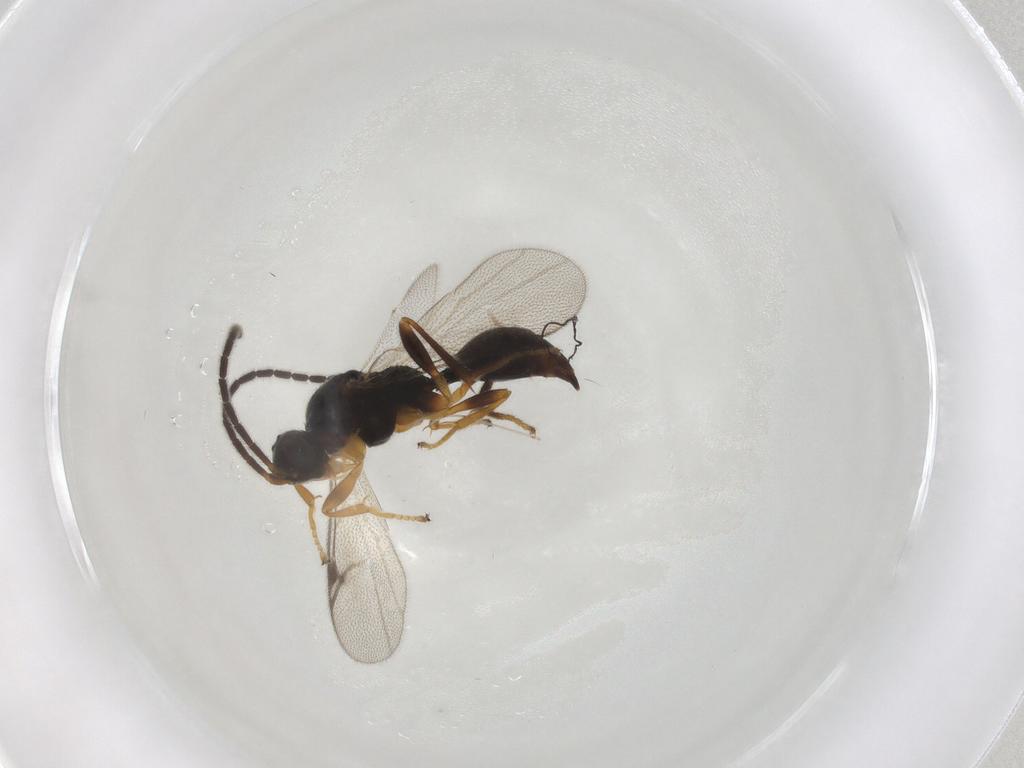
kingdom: Animalia
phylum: Arthropoda
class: Insecta
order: Hymenoptera
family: Proctotrupidae
